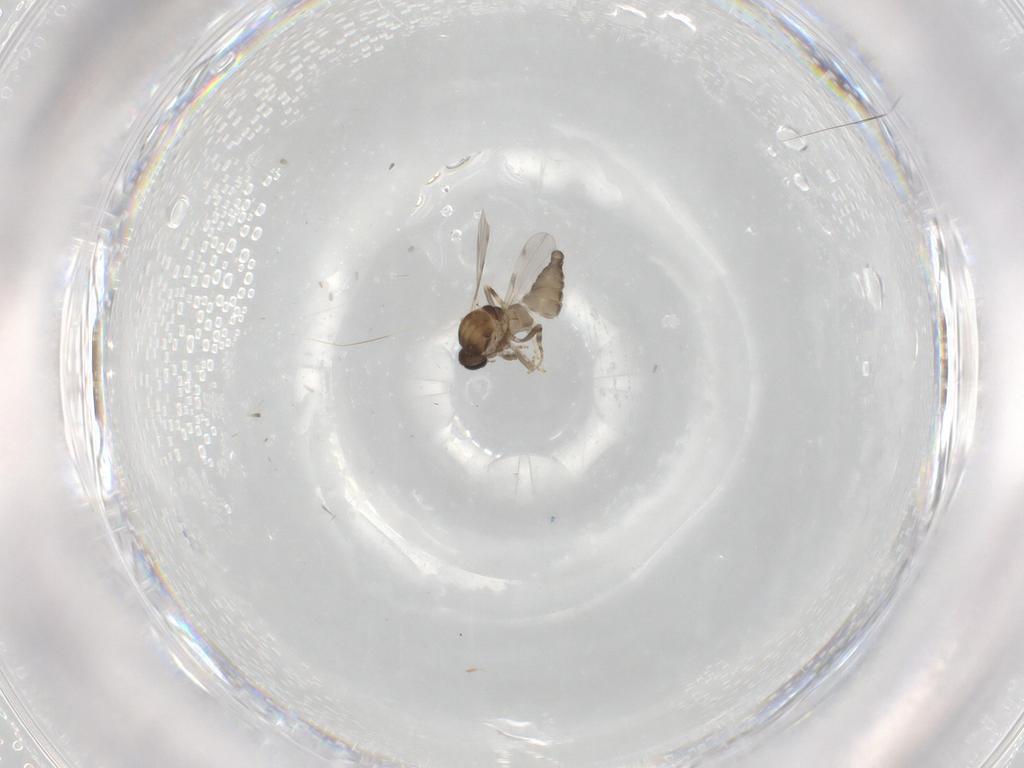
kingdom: Animalia
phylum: Arthropoda
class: Insecta
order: Diptera
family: Ceratopogonidae
